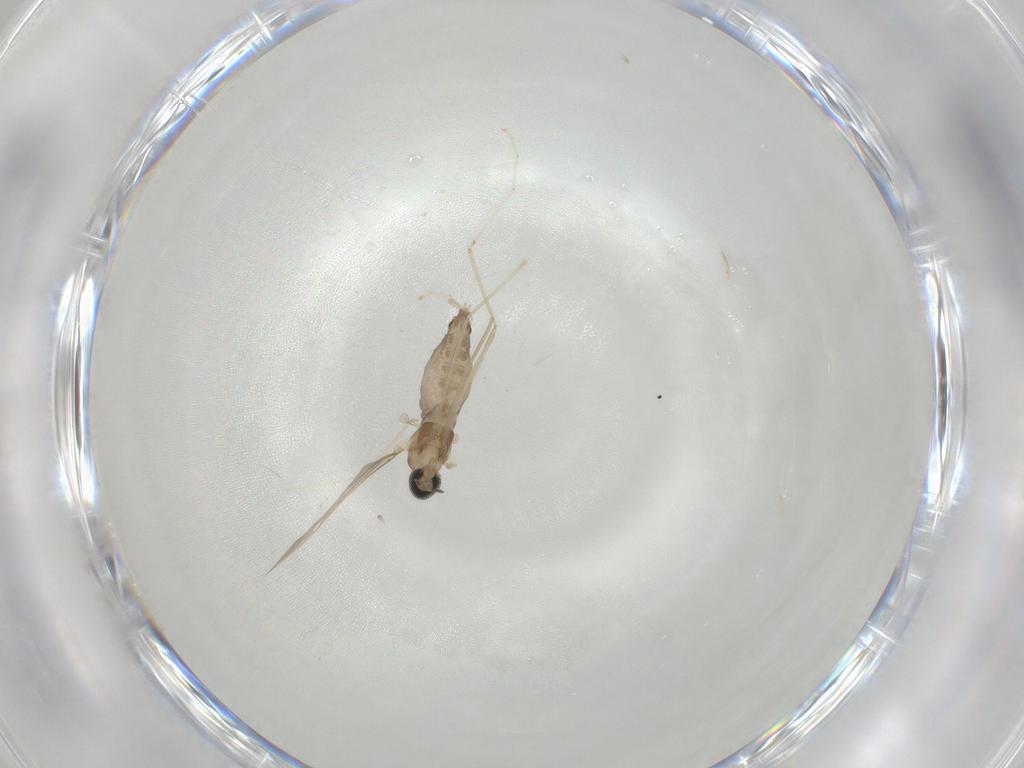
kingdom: Animalia
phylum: Arthropoda
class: Insecta
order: Diptera
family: Cecidomyiidae
